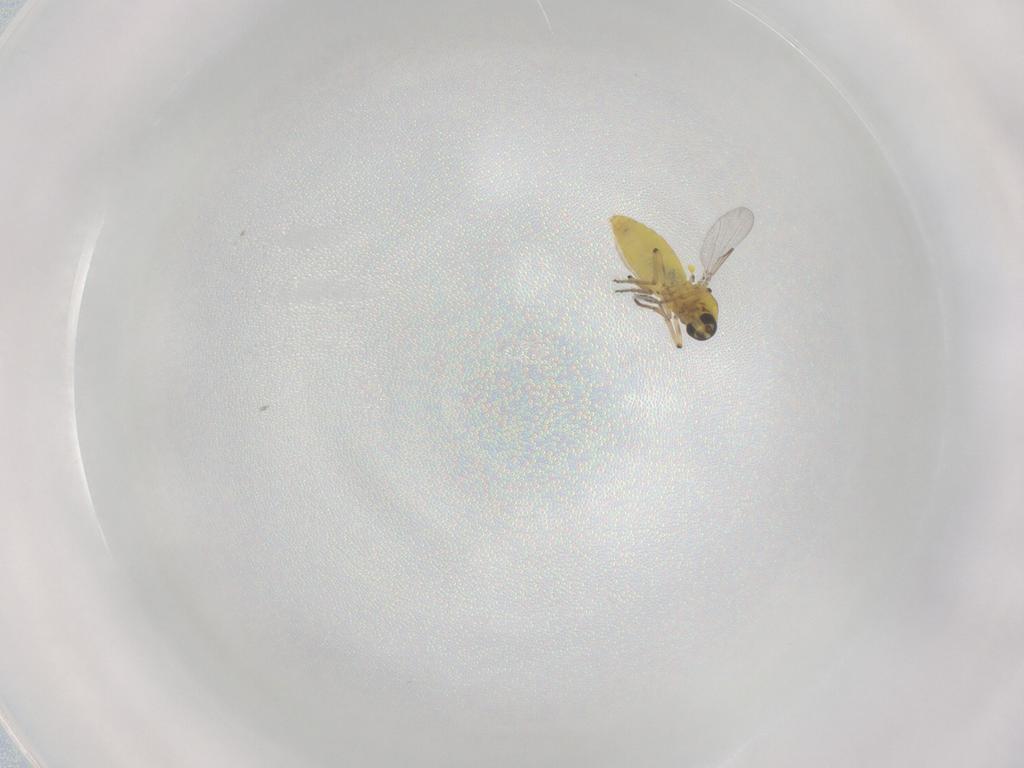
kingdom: Animalia
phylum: Arthropoda
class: Insecta
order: Diptera
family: Ceratopogonidae
